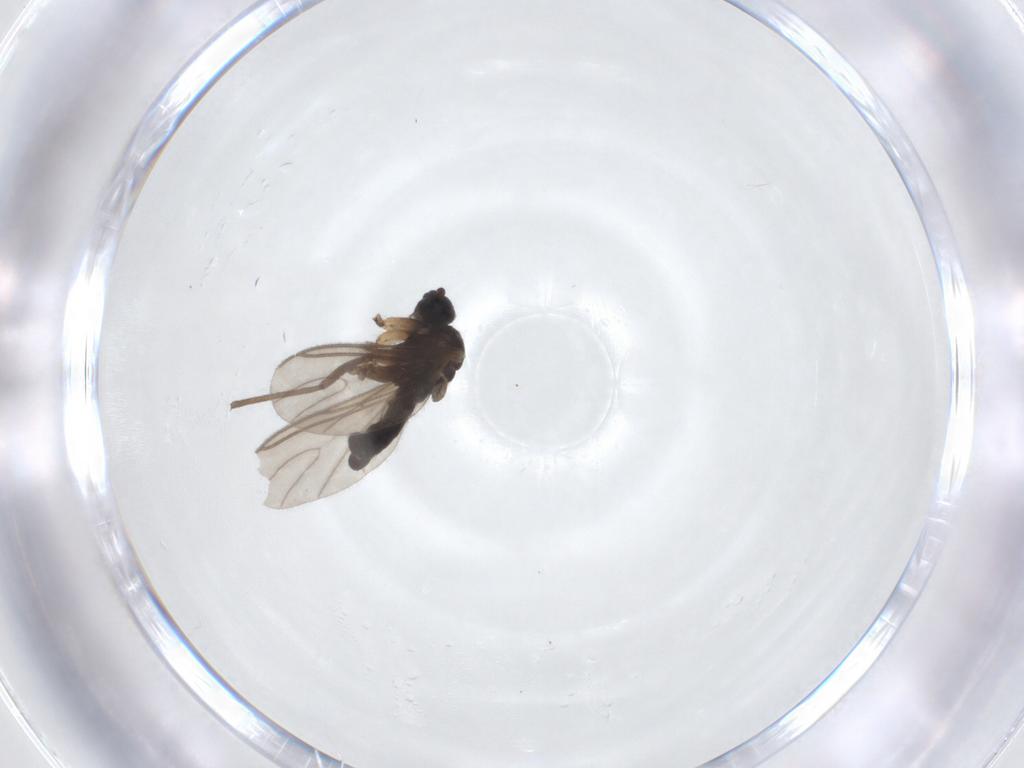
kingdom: Animalia
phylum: Arthropoda
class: Insecta
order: Diptera
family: Sciaridae
